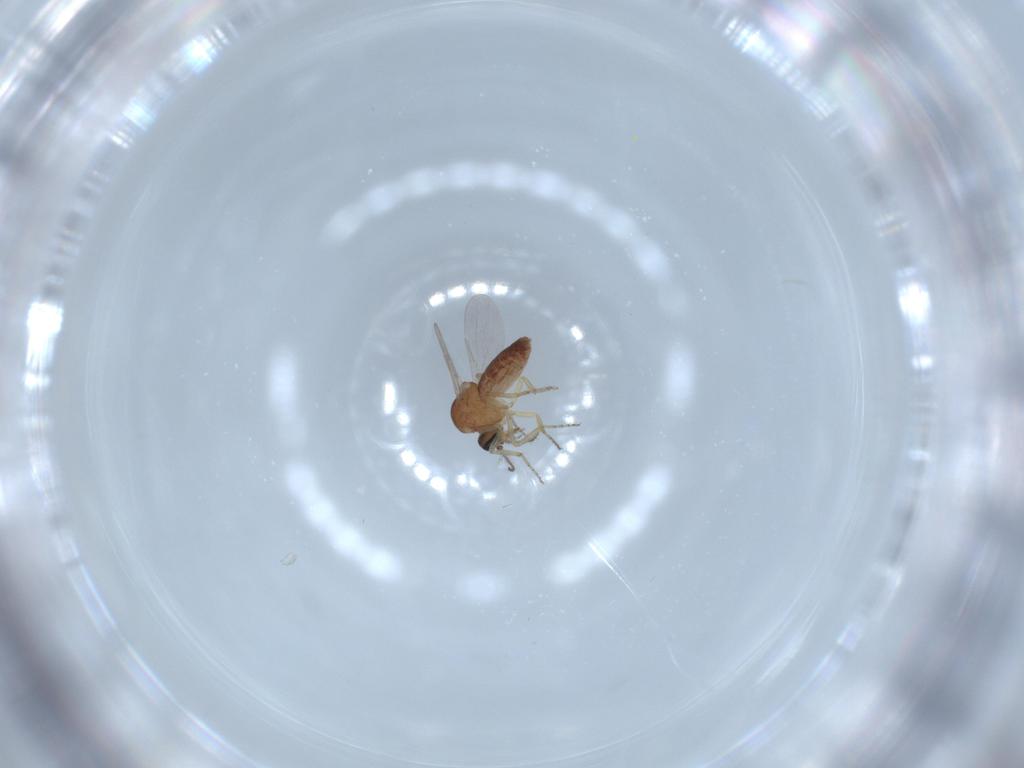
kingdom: Animalia
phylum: Arthropoda
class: Insecta
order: Diptera
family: Ceratopogonidae
